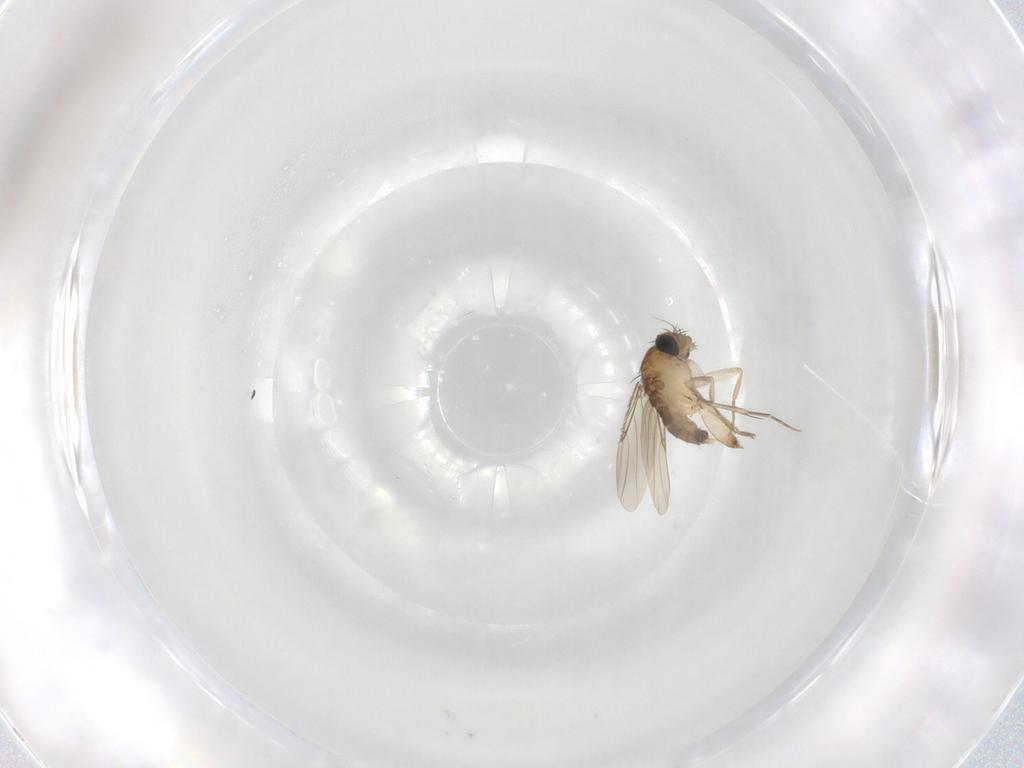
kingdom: Animalia
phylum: Arthropoda
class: Insecta
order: Diptera
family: Phoridae
